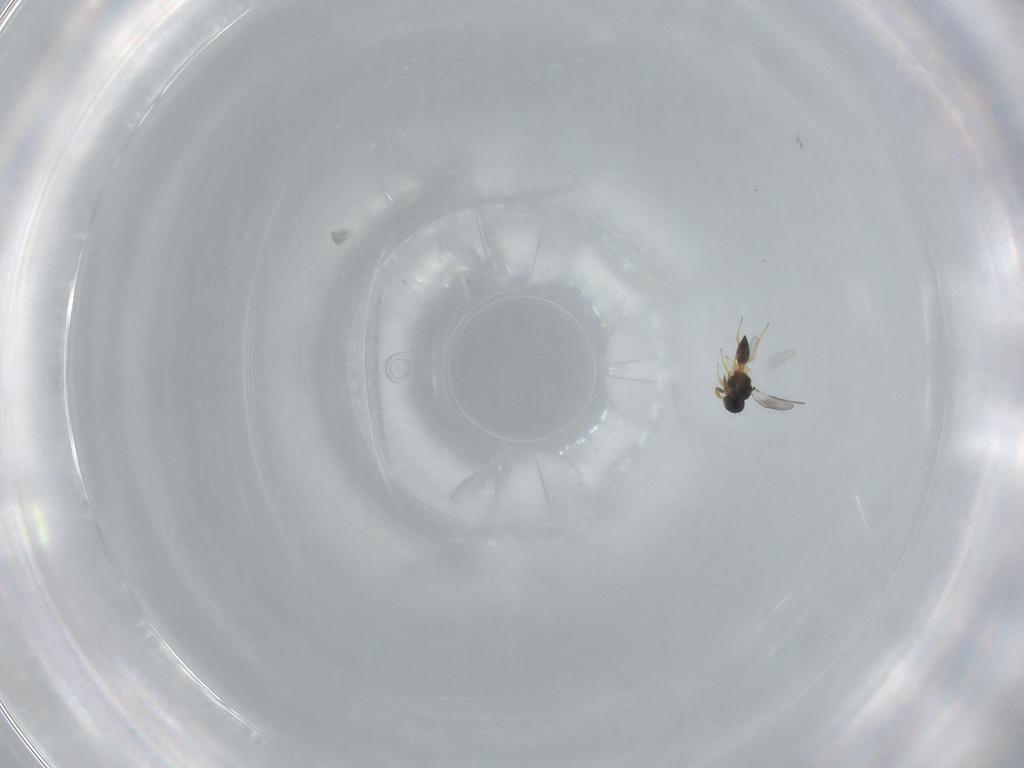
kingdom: Animalia
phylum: Arthropoda
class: Insecta
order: Hymenoptera
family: Platygastridae
